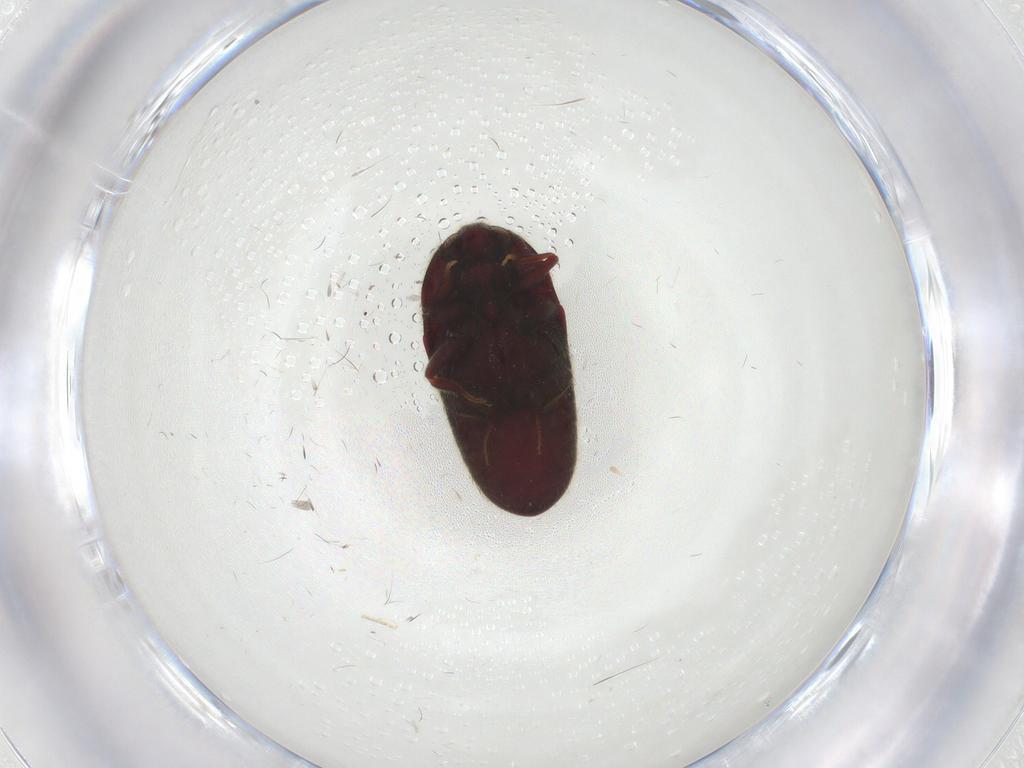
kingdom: Animalia
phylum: Arthropoda
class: Insecta
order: Coleoptera
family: Throscidae
